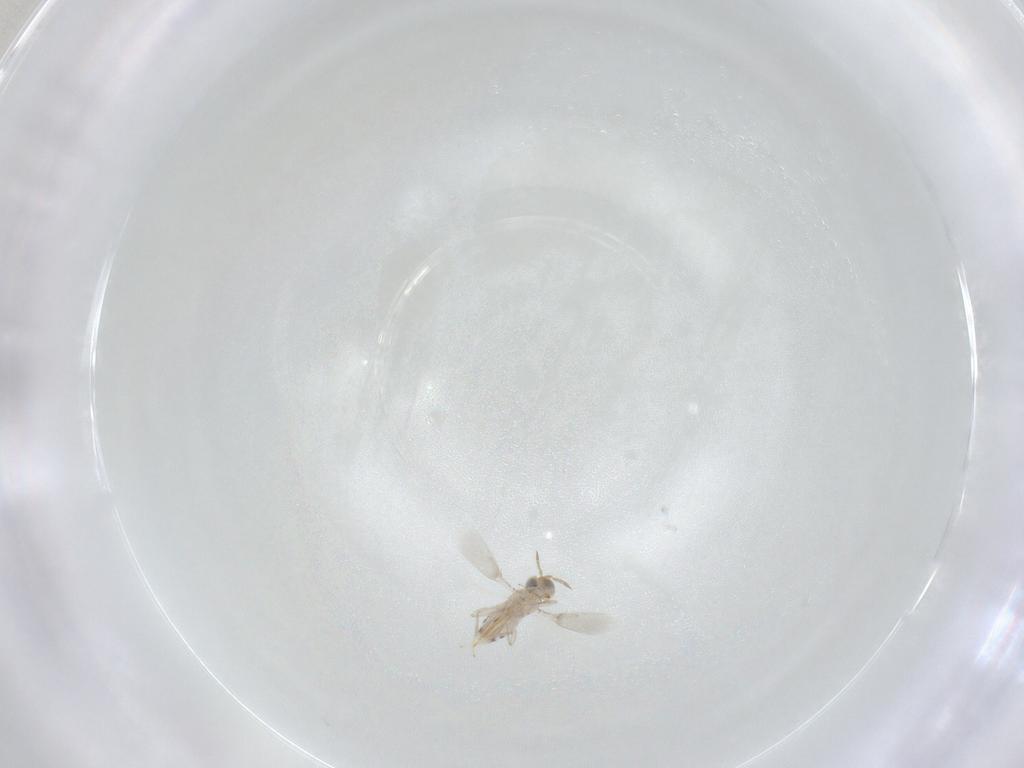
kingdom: Animalia
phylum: Arthropoda
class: Insecta
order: Hymenoptera
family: Aphelinidae
